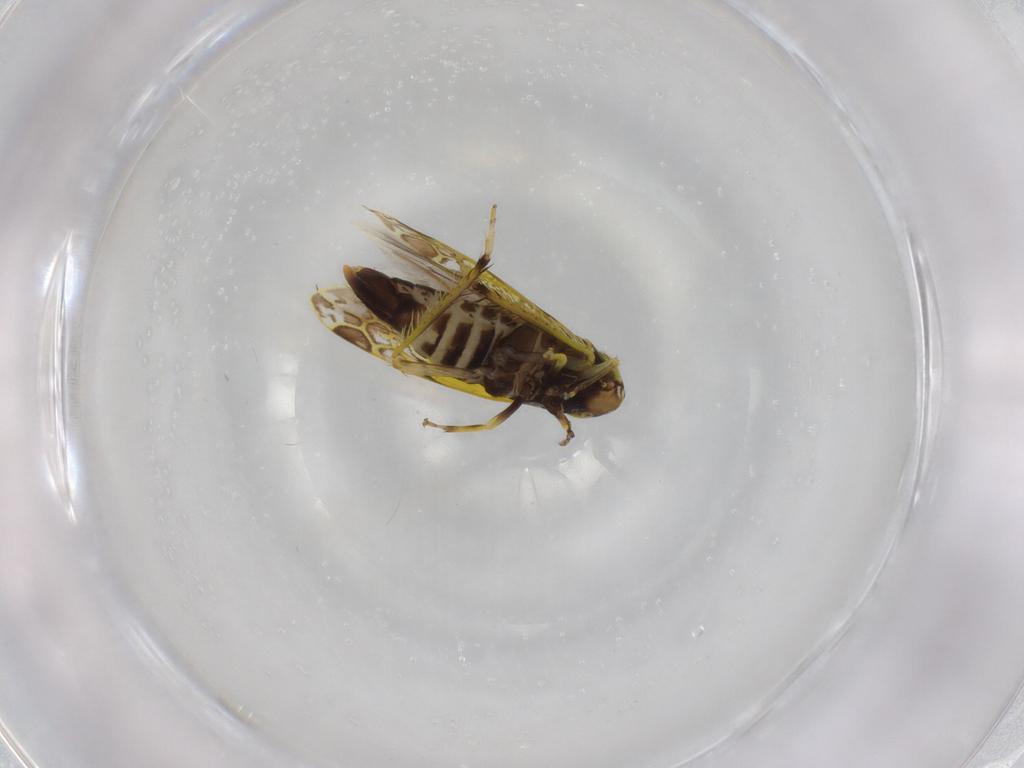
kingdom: Animalia
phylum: Arthropoda
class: Insecta
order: Hemiptera
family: Cicadellidae
